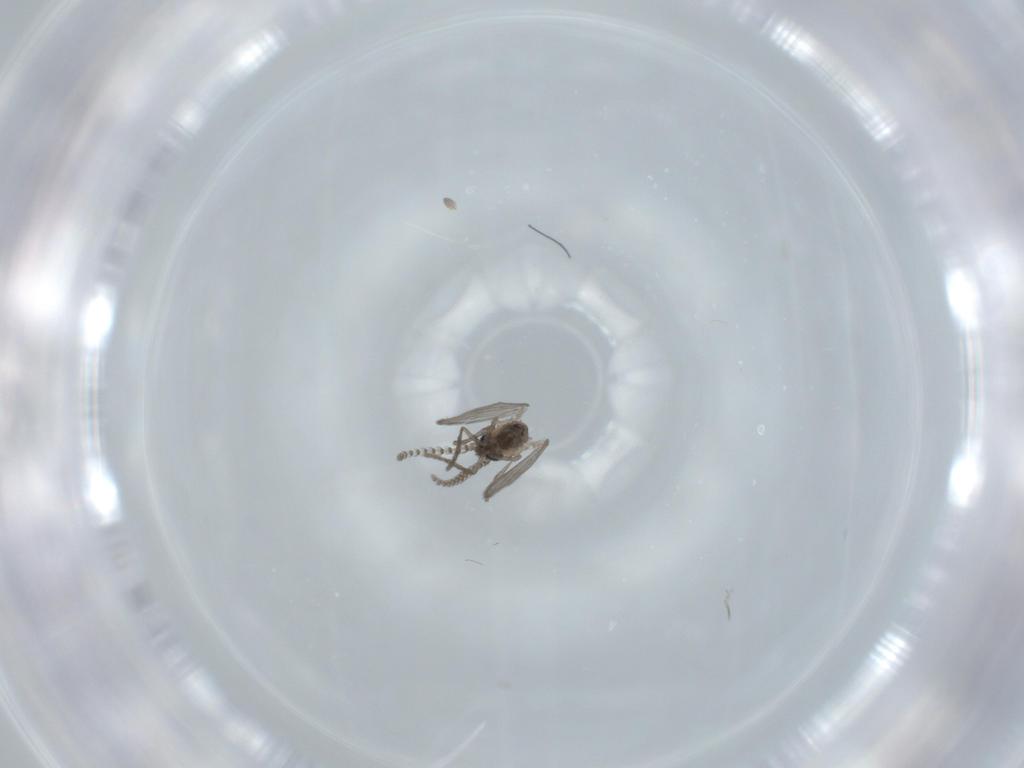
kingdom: Animalia
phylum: Arthropoda
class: Insecta
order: Diptera
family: Psychodidae
